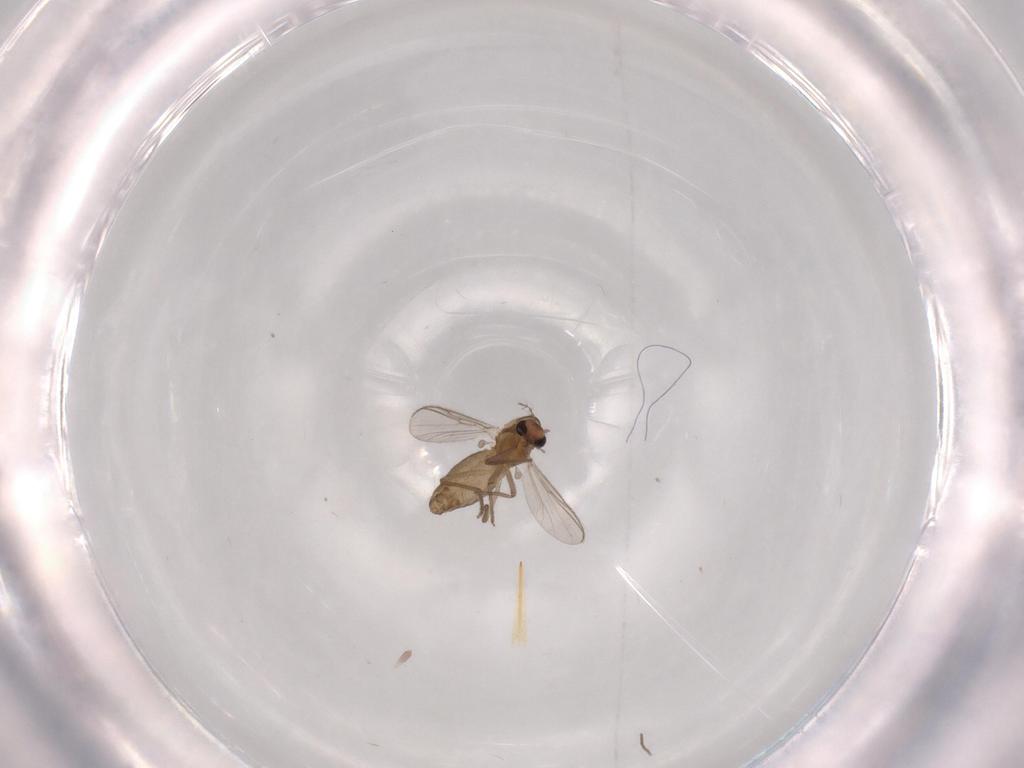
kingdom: Animalia
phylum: Arthropoda
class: Insecta
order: Diptera
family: Chironomidae
